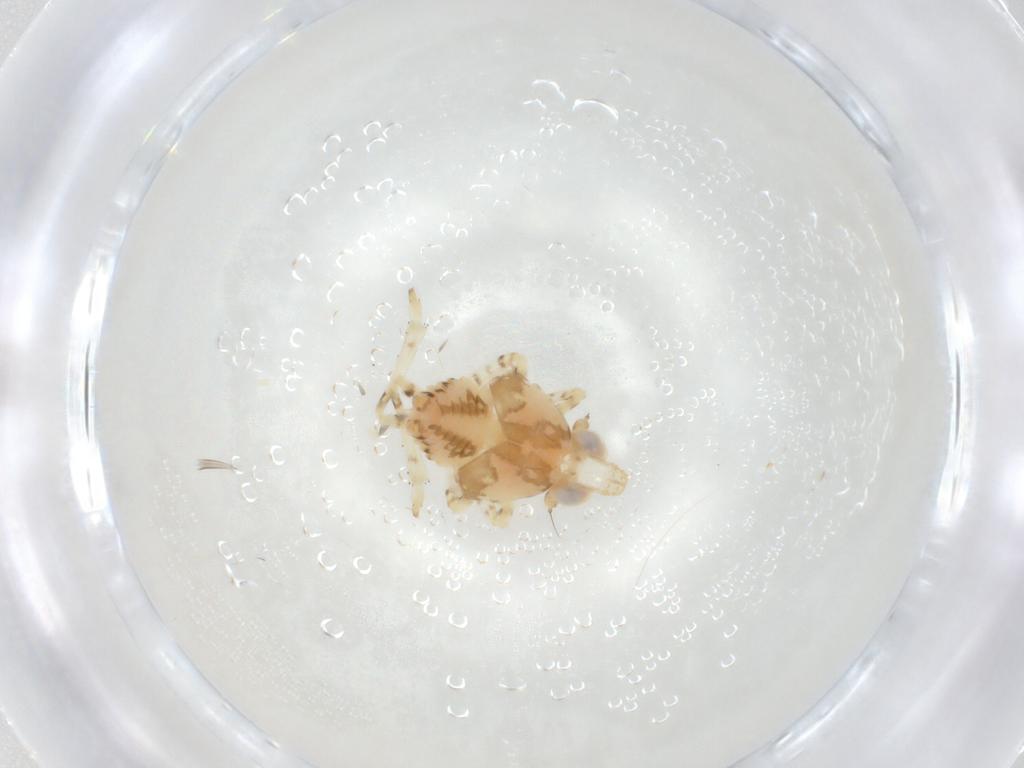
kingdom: Animalia
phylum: Arthropoda
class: Insecta
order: Hemiptera
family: Lophopidae
